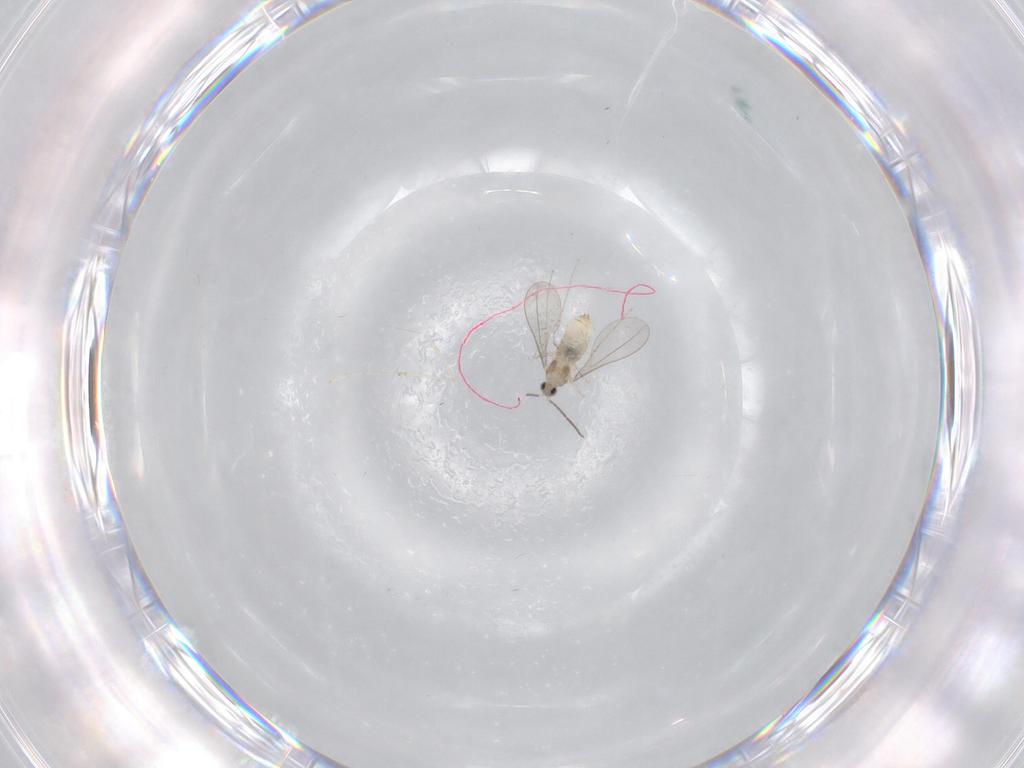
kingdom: Animalia
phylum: Arthropoda
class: Insecta
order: Diptera
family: Cecidomyiidae
